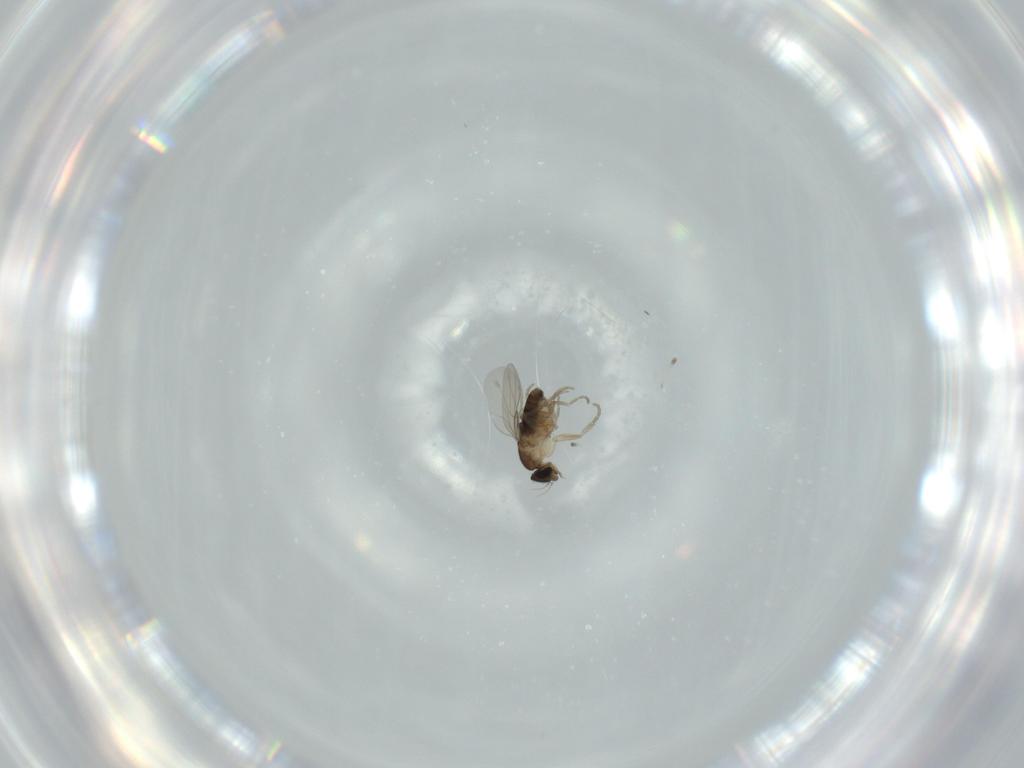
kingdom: Animalia
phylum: Arthropoda
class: Insecta
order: Diptera
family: Phoridae
